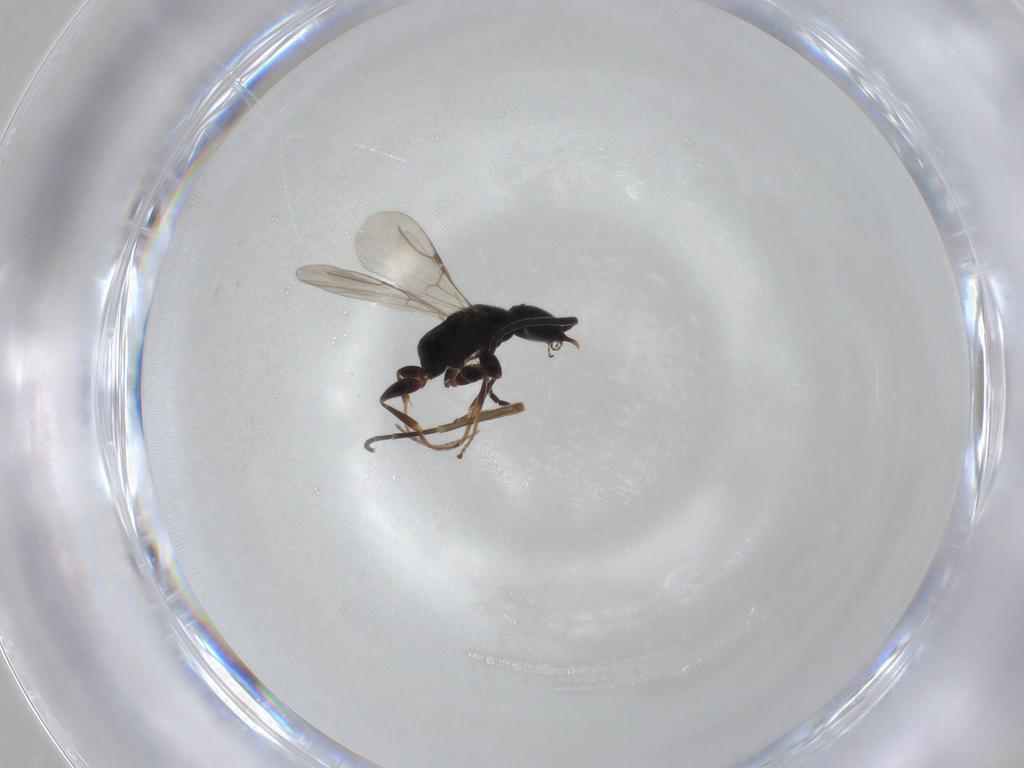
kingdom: Animalia
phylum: Arthropoda
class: Insecta
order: Hymenoptera
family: Bethylidae
